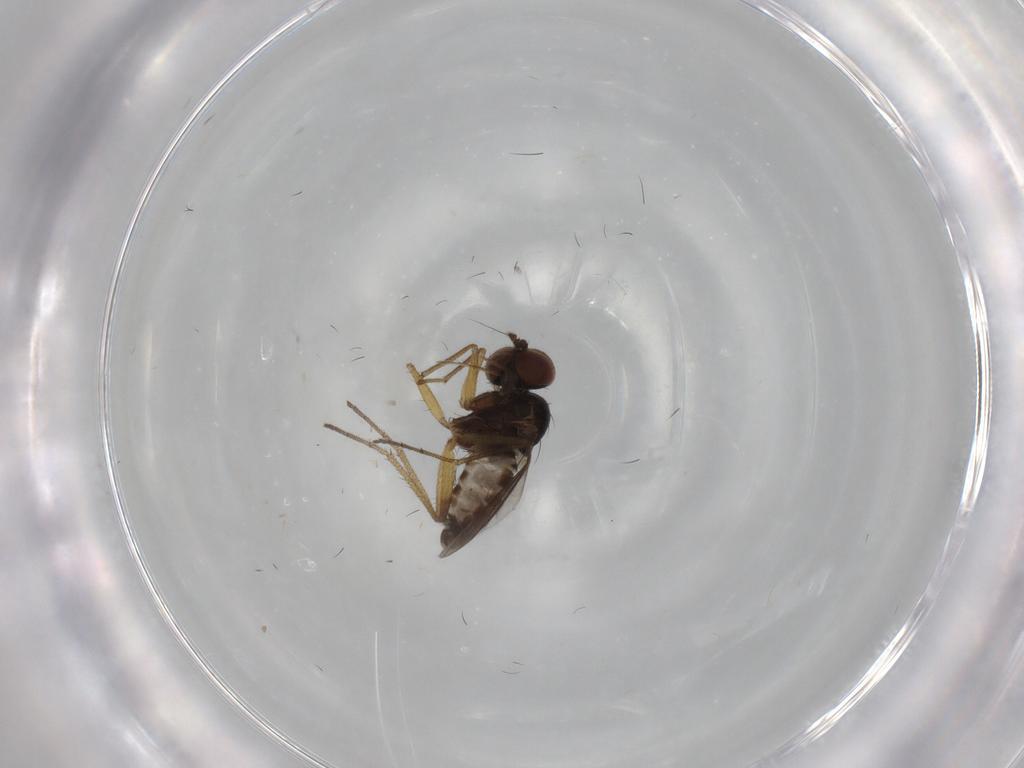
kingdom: Animalia
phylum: Arthropoda
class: Insecta
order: Diptera
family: Dolichopodidae
